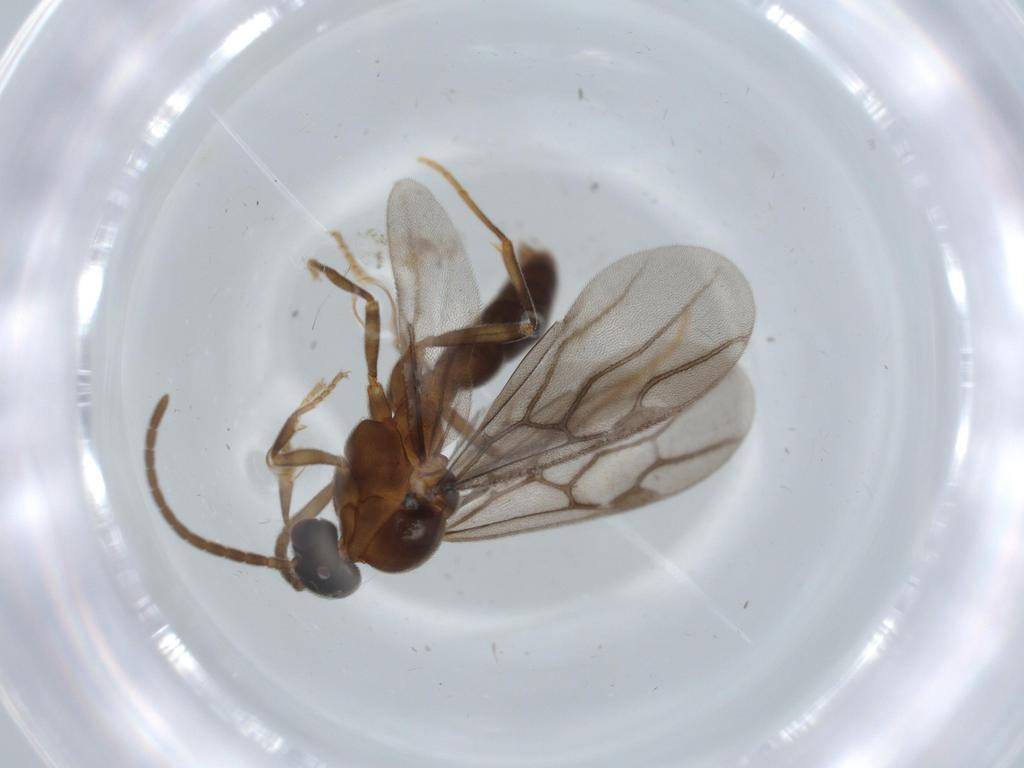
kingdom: Animalia
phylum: Arthropoda
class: Insecta
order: Hymenoptera
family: Formicidae
